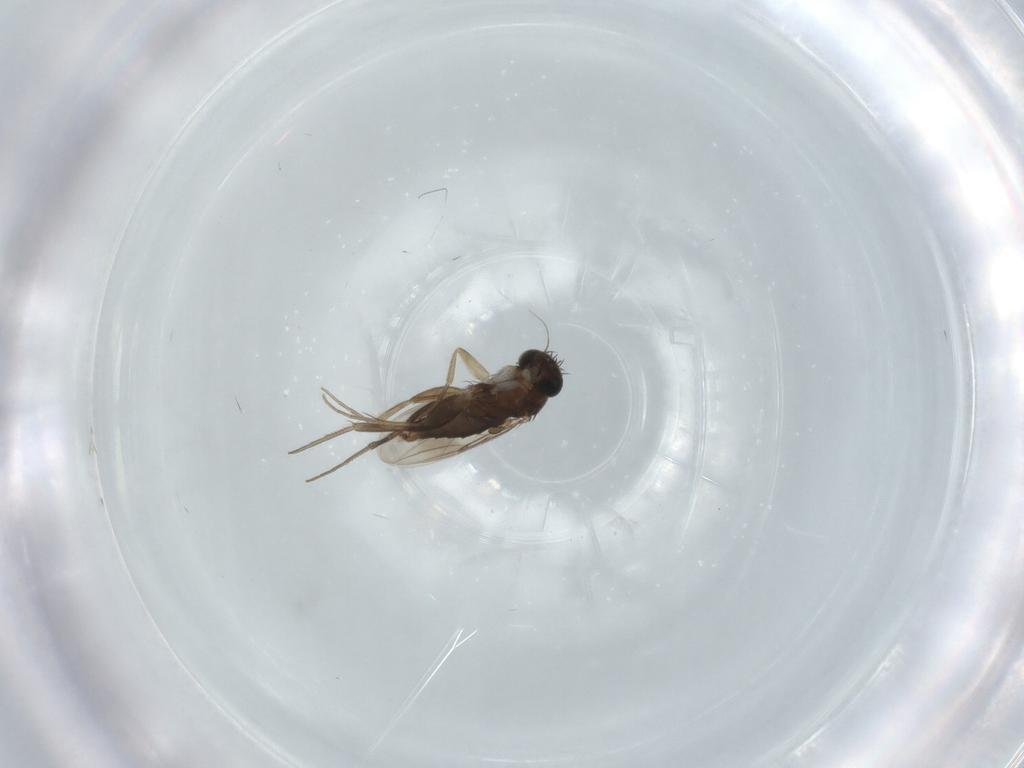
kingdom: Animalia
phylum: Arthropoda
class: Insecta
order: Diptera
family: Phoridae
